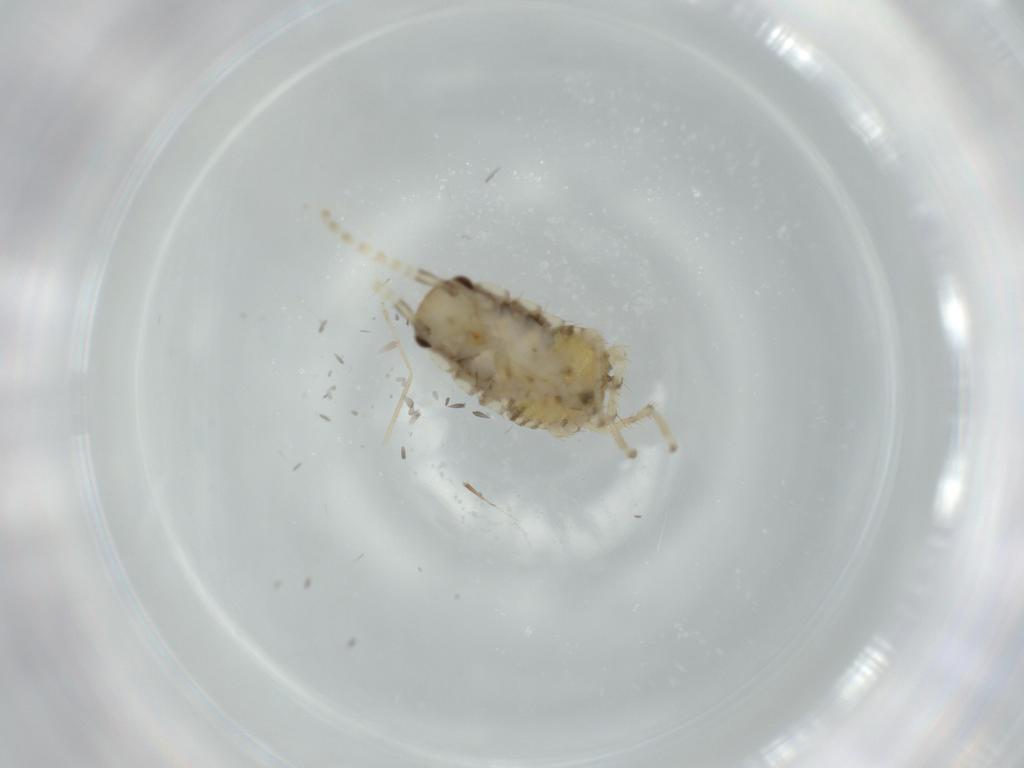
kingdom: Animalia
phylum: Arthropoda
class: Insecta
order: Blattodea
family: Ectobiidae
